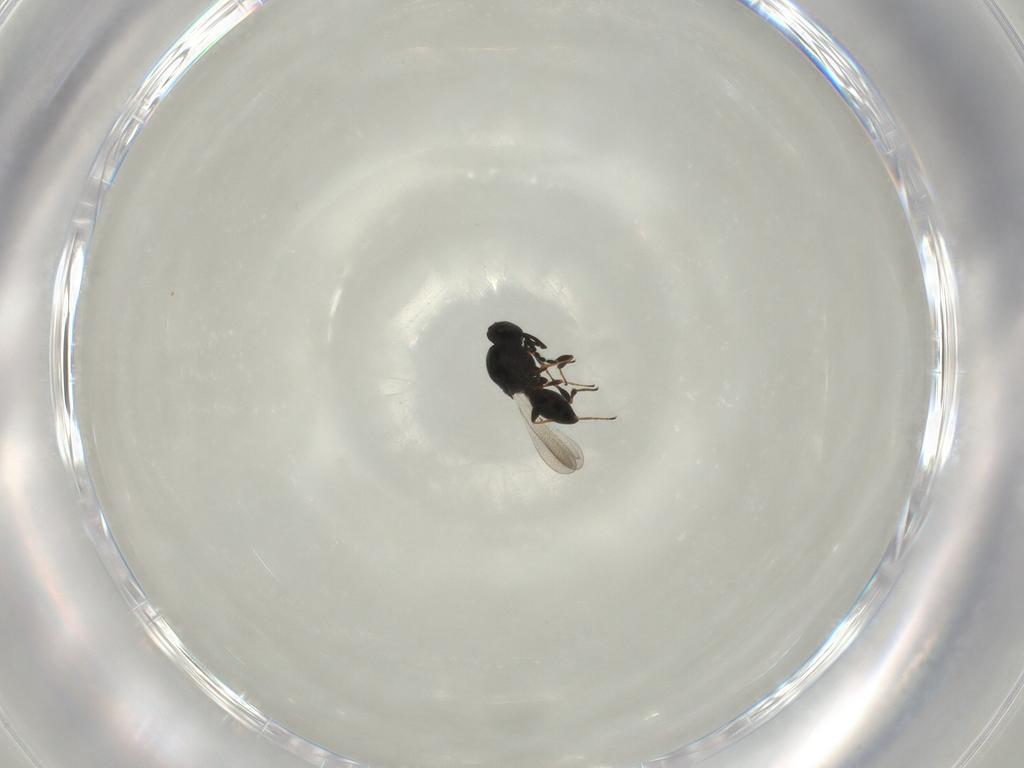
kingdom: Animalia
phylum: Arthropoda
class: Insecta
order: Hymenoptera
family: Platygastridae
